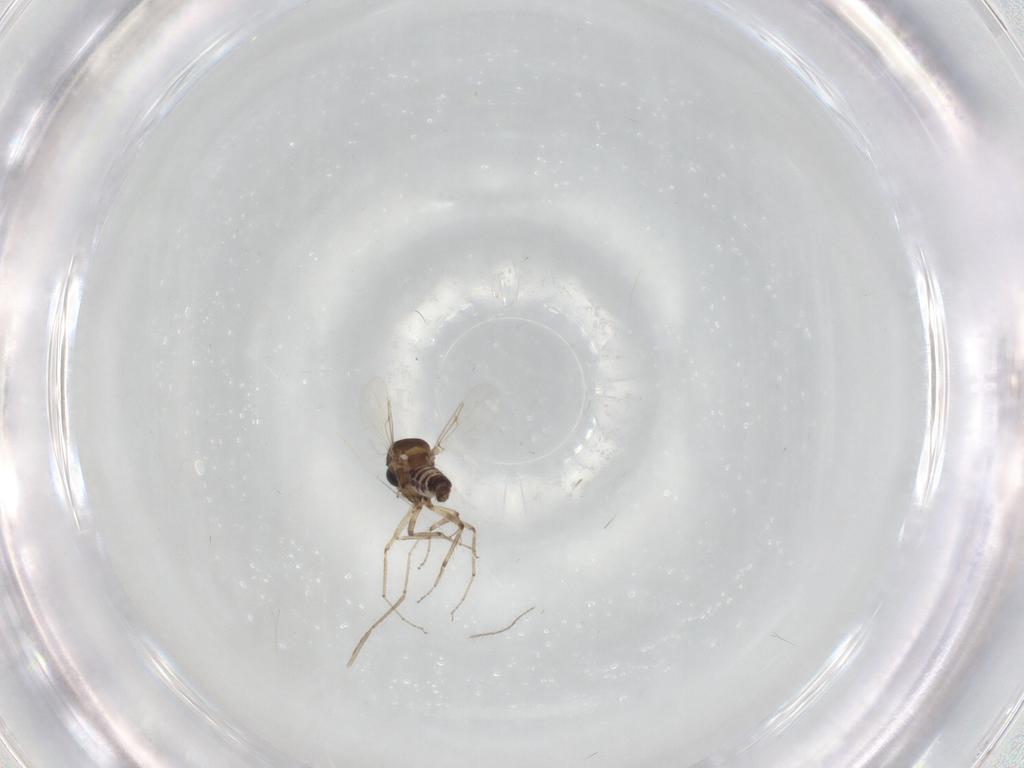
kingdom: Animalia
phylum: Arthropoda
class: Insecta
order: Diptera
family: Ceratopogonidae
